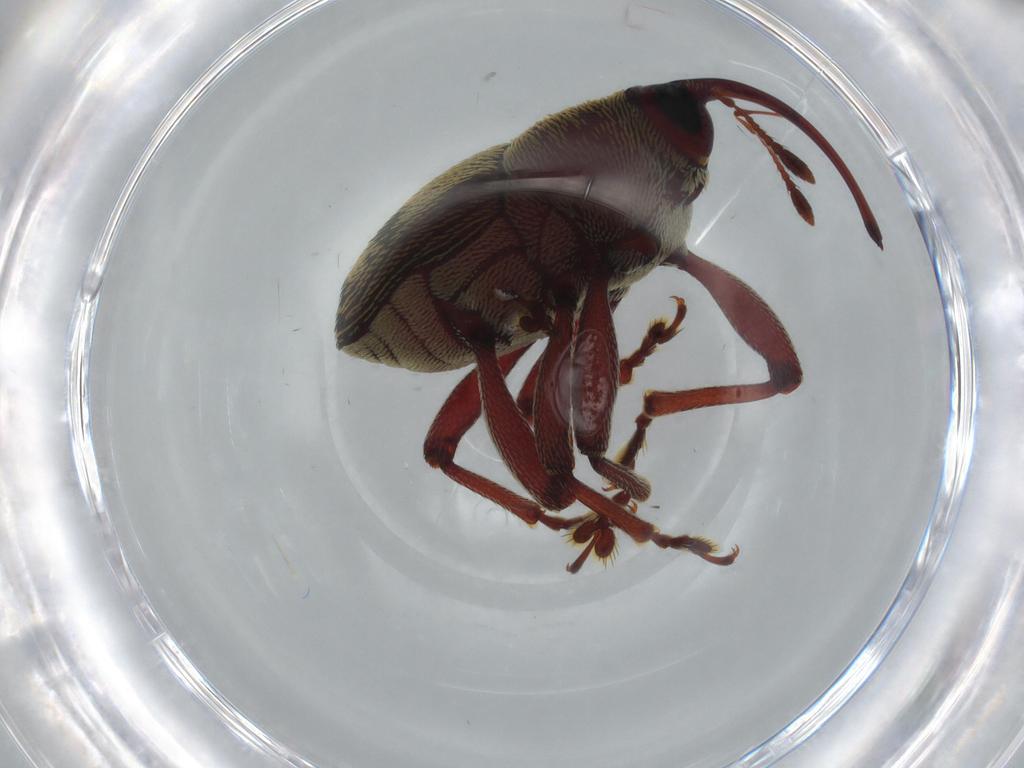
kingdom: Animalia
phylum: Arthropoda
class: Insecta
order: Coleoptera
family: Curculionidae
